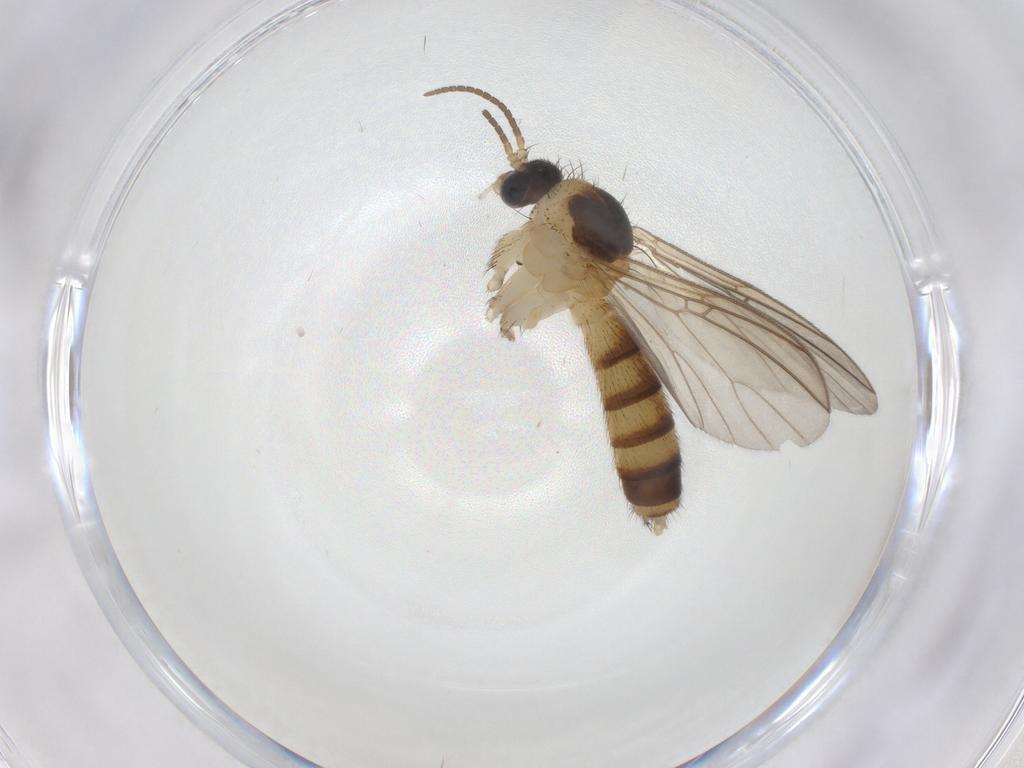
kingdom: Animalia
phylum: Arthropoda
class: Insecta
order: Diptera
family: Mycetophilidae
